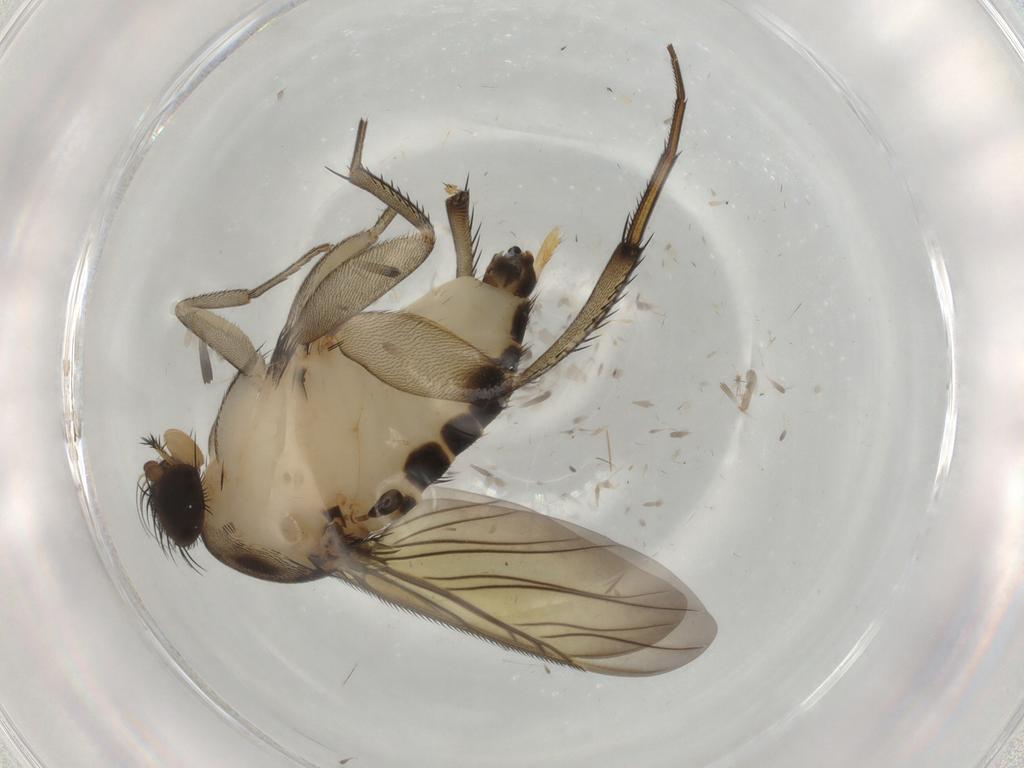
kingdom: Animalia
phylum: Arthropoda
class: Insecta
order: Diptera
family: Phoridae
